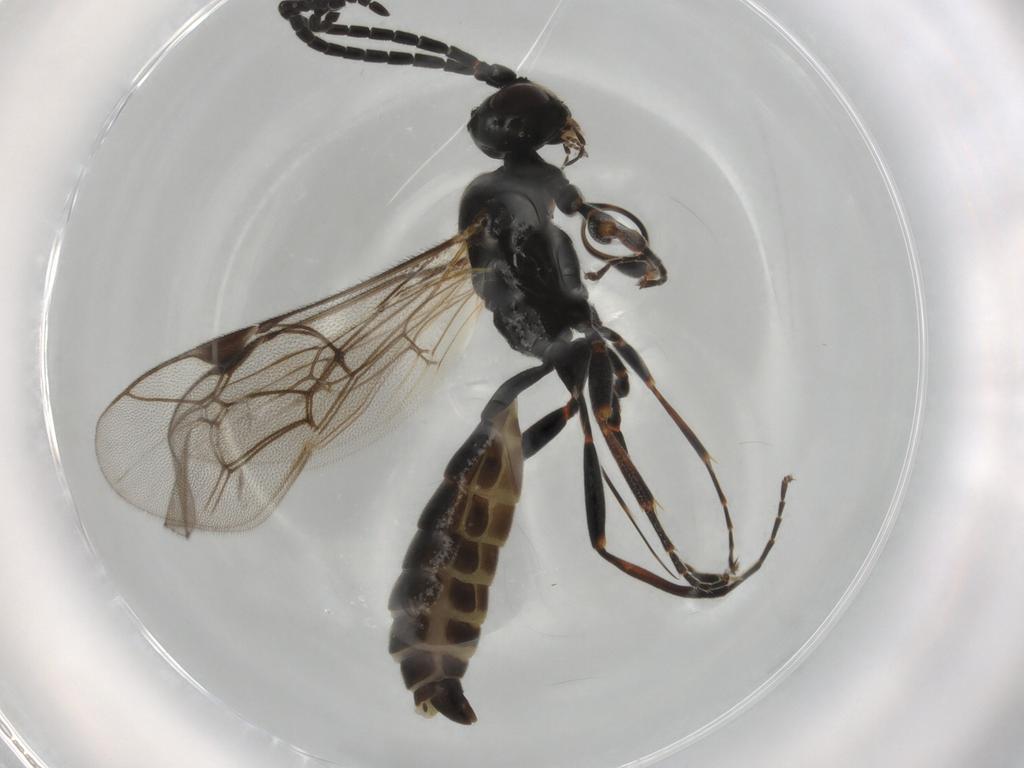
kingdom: Animalia
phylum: Arthropoda
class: Insecta
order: Hymenoptera
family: Ichneumonidae
